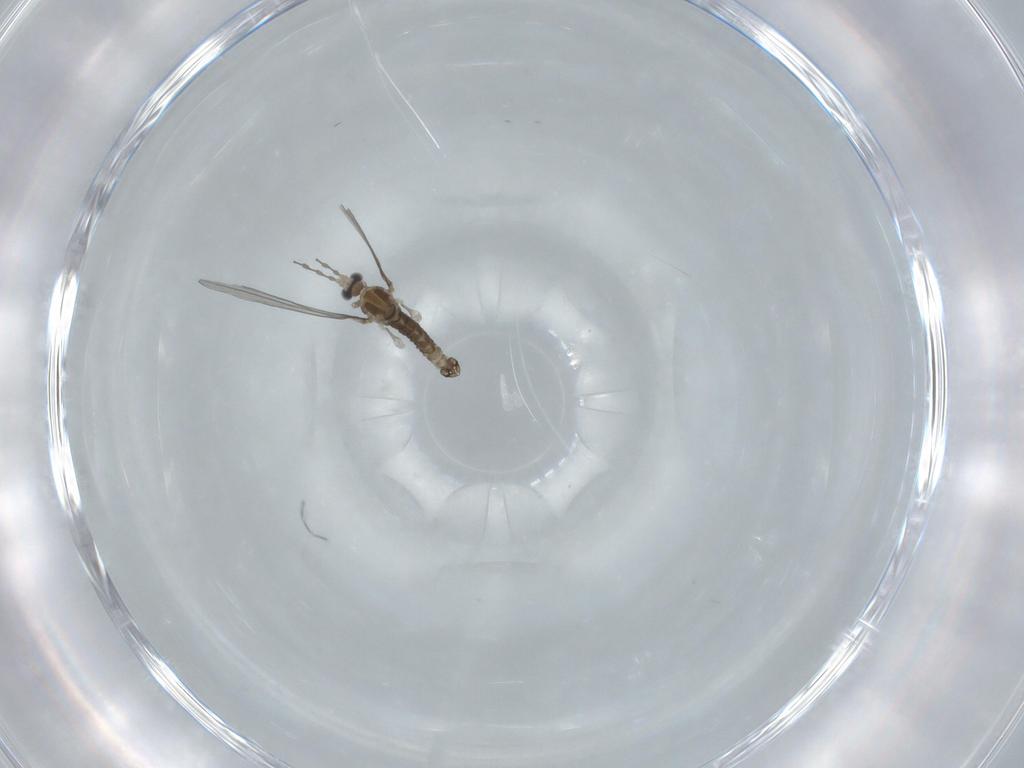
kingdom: Animalia
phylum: Arthropoda
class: Insecta
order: Diptera
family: Cecidomyiidae
